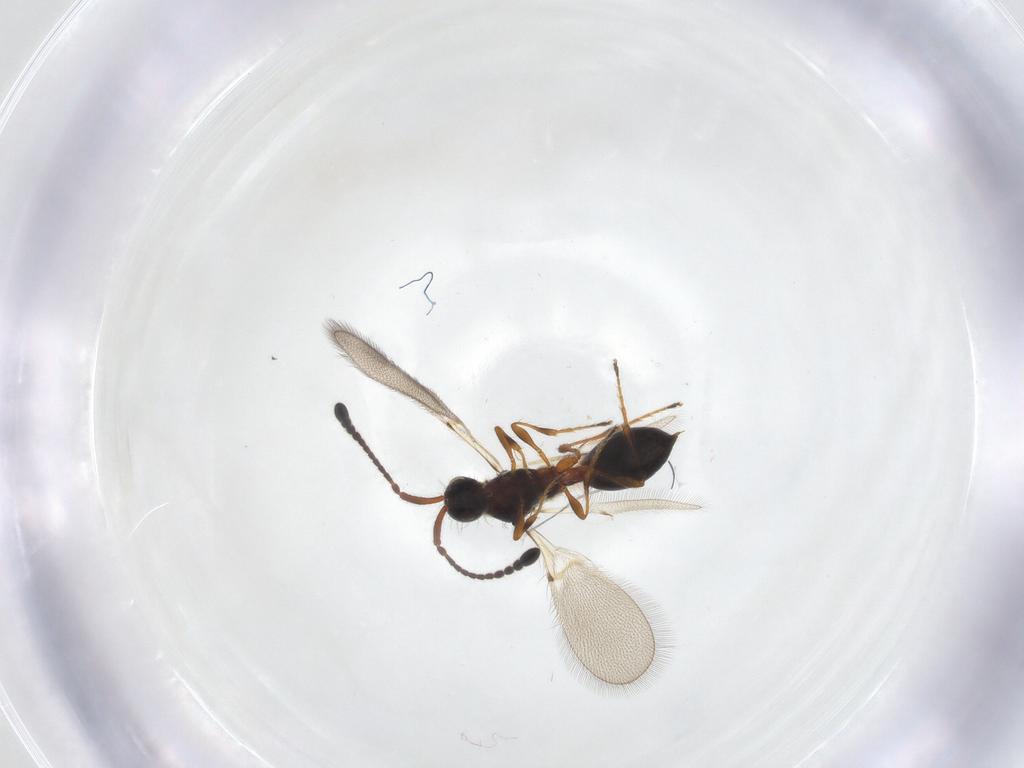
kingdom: Animalia
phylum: Arthropoda
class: Insecta
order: Hymenoptera
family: Diapriidae
